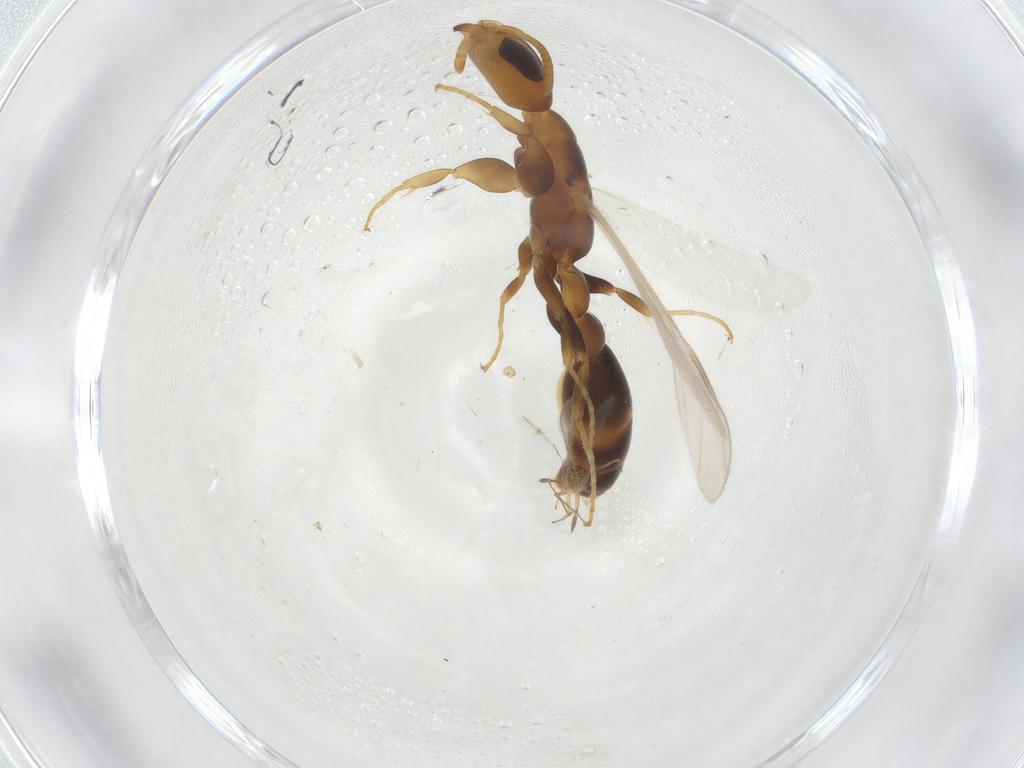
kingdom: Animalia
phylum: Arthropoda
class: Insecta
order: Hymenoptera
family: Formicidae
